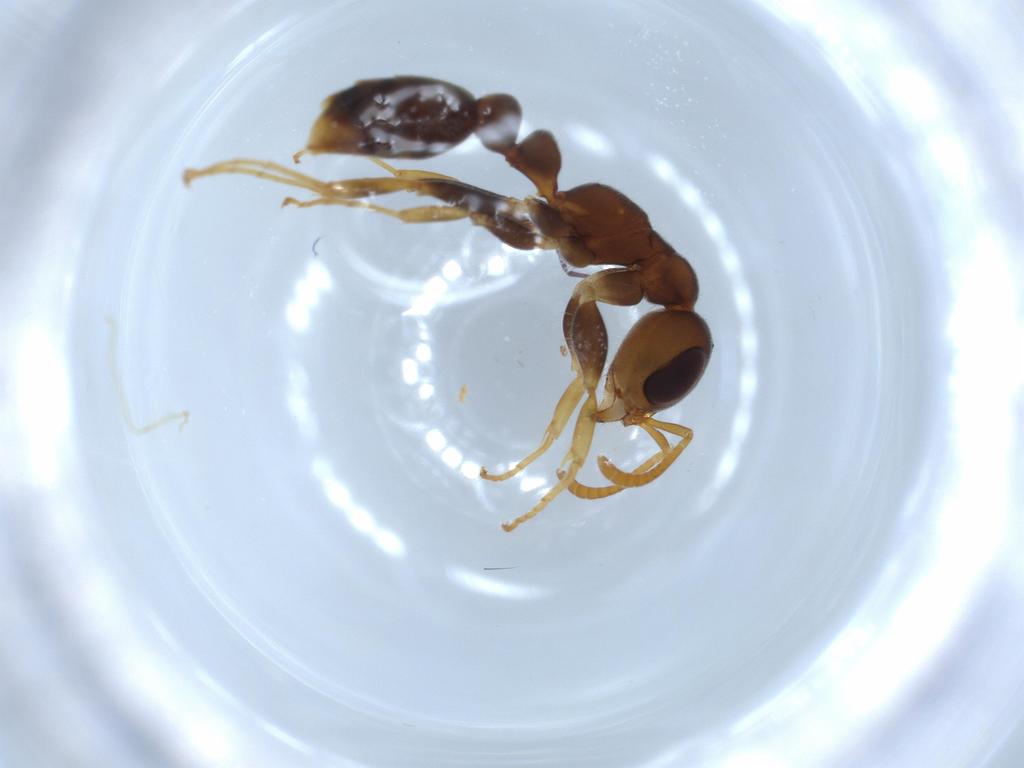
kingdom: Animalia
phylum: Arthropoda
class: Insecta
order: Hymenoptera
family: Formicidae
